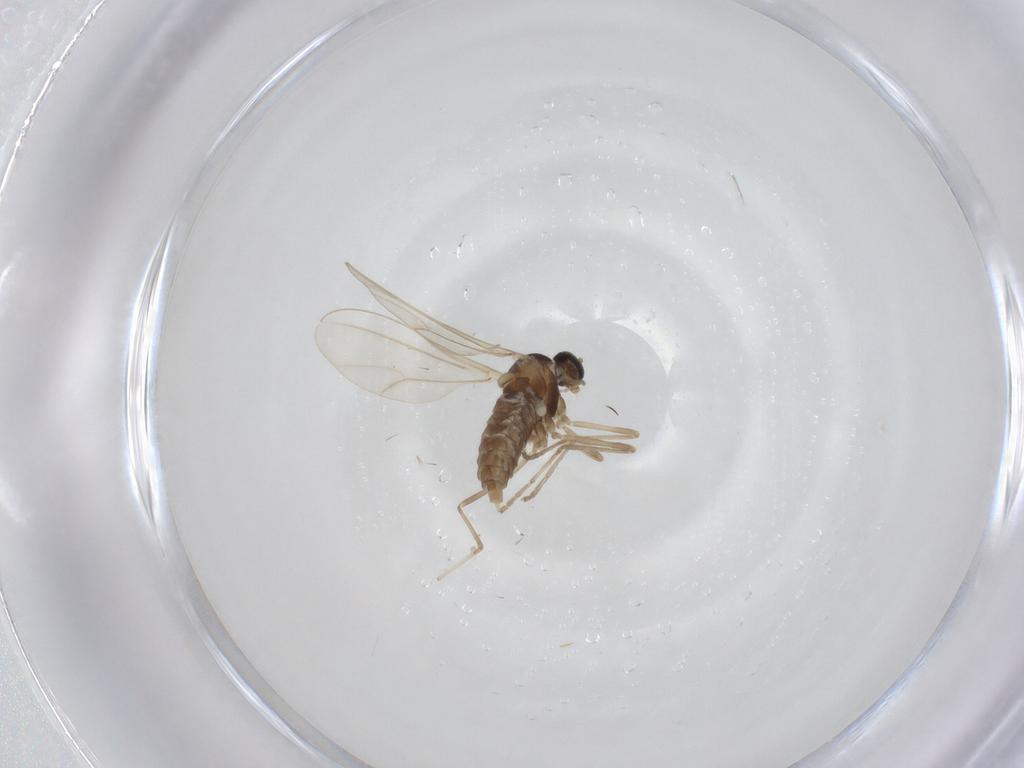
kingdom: Animalia
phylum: Arthropoda
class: Insecta
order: Diptera
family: Cecidomyiidae
